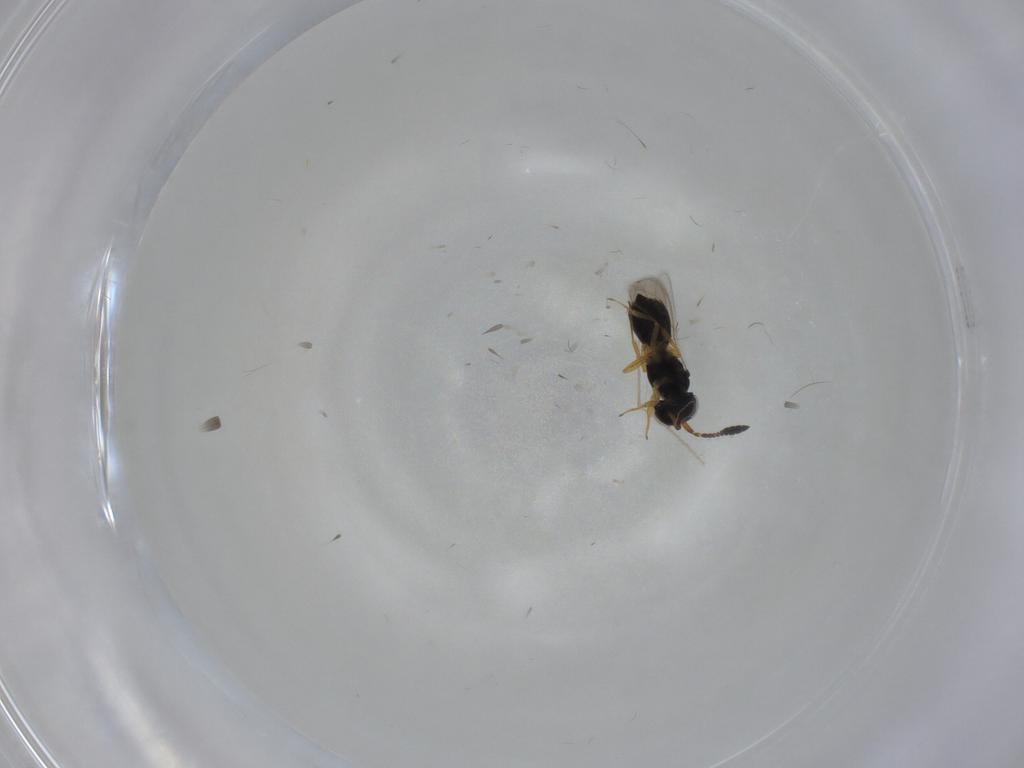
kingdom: Animalia
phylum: Arthropoda
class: Insecta
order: Hymenoptera
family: Scelionidae
